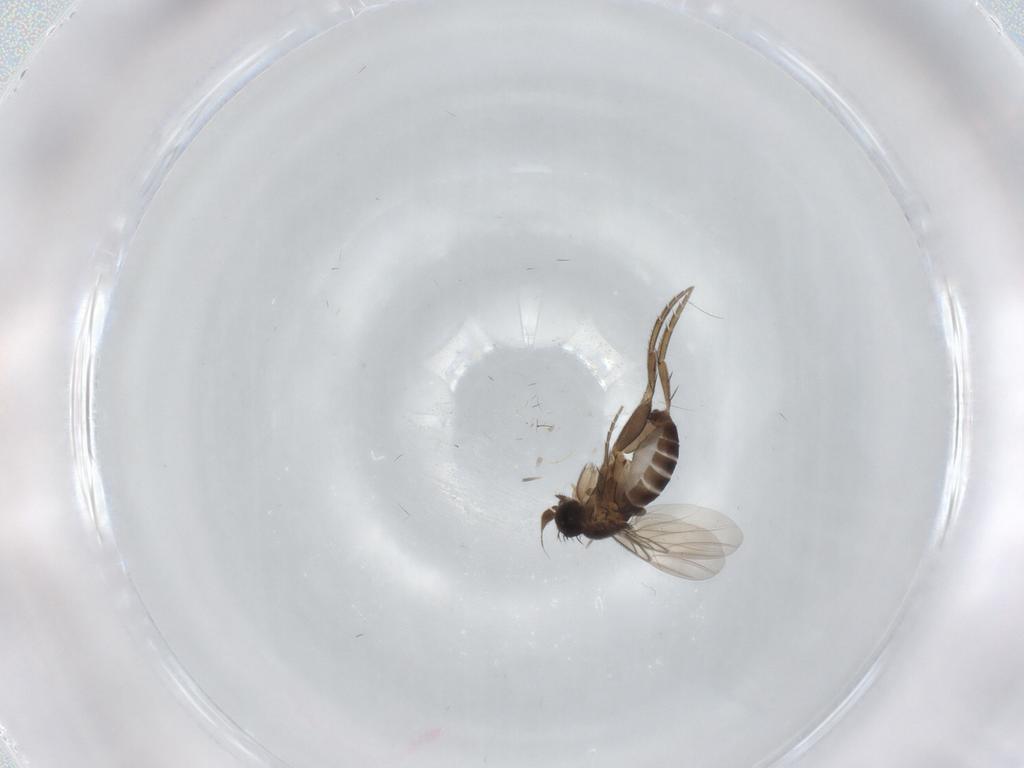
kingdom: Animalia
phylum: Arthropoda
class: Insecta
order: Diptera
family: Phoridae
